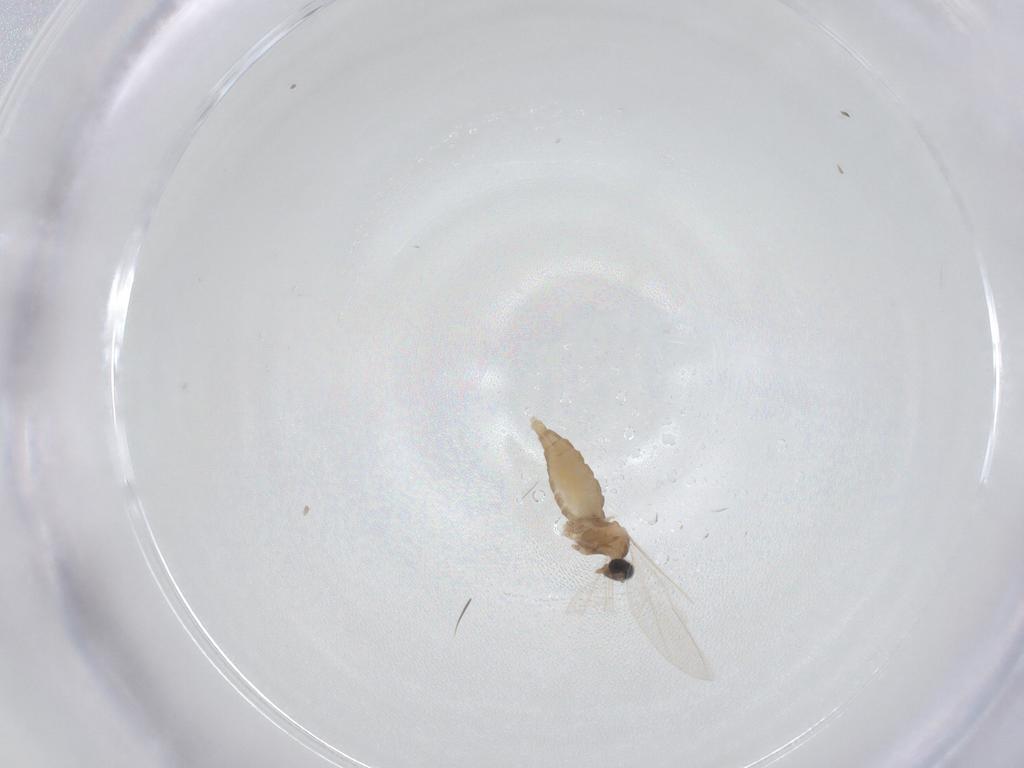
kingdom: Animalia
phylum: Arthropoda
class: Insecta
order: Diptera
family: Cecidomyiidae
